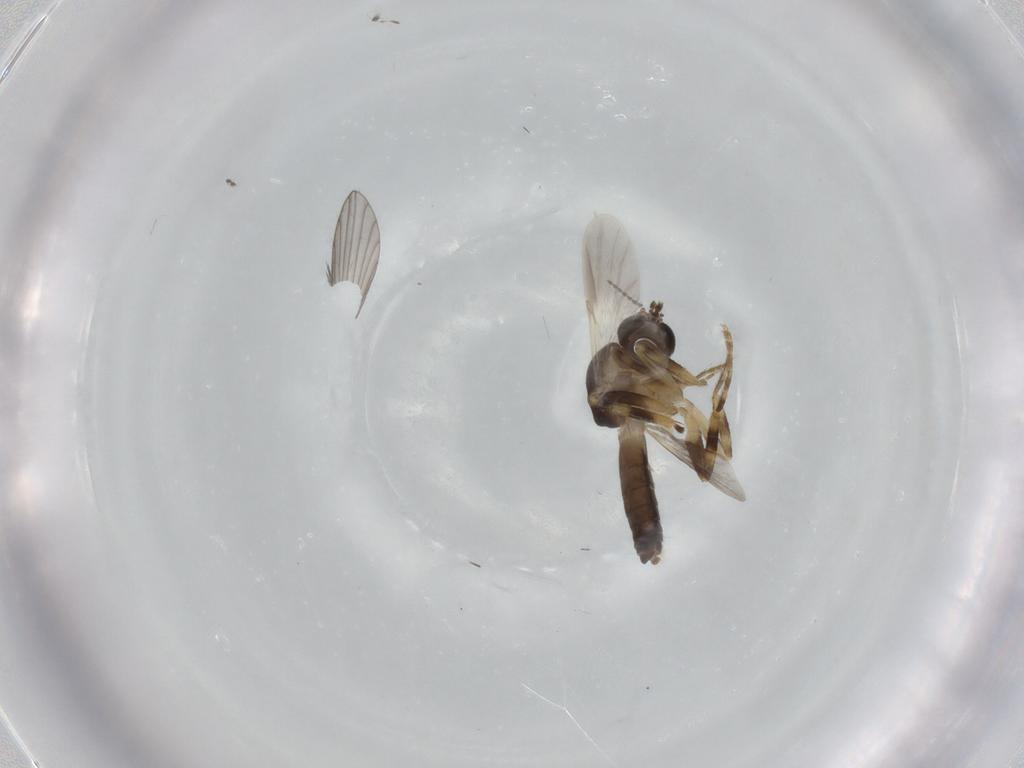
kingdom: Animalia
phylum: Arthropoda
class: Insecta
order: Diptera
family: Ceratopogonidae
